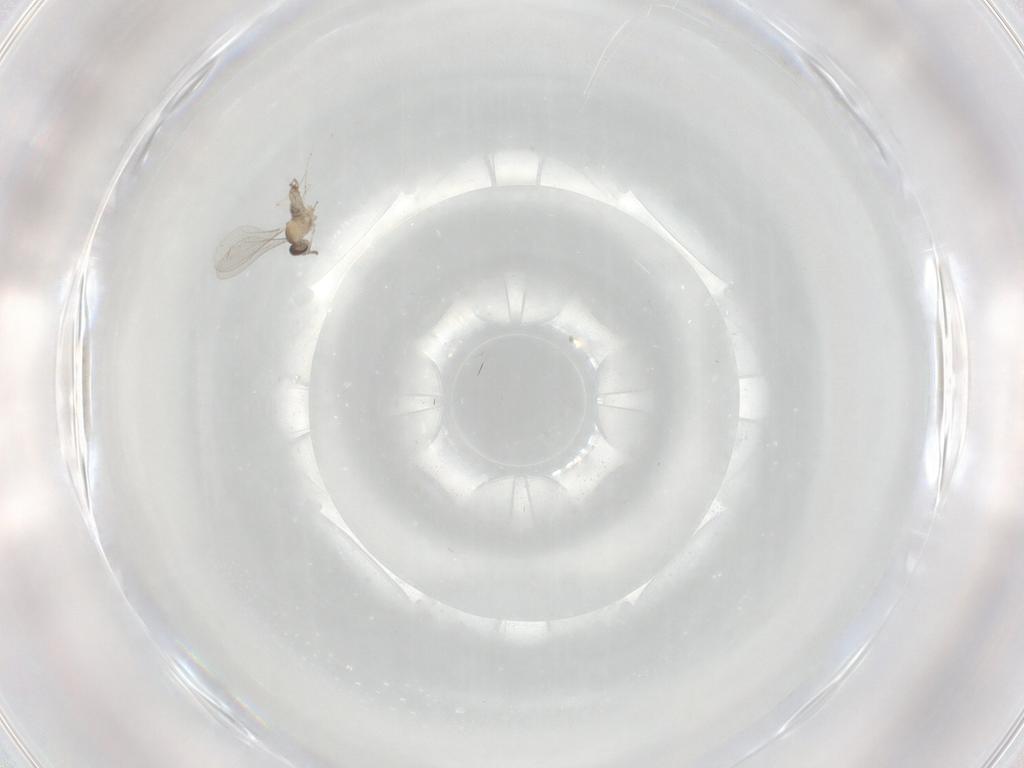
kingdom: Animalia
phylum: Arthropoda
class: Insecta
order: Diptera
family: Cecidomyiidae
